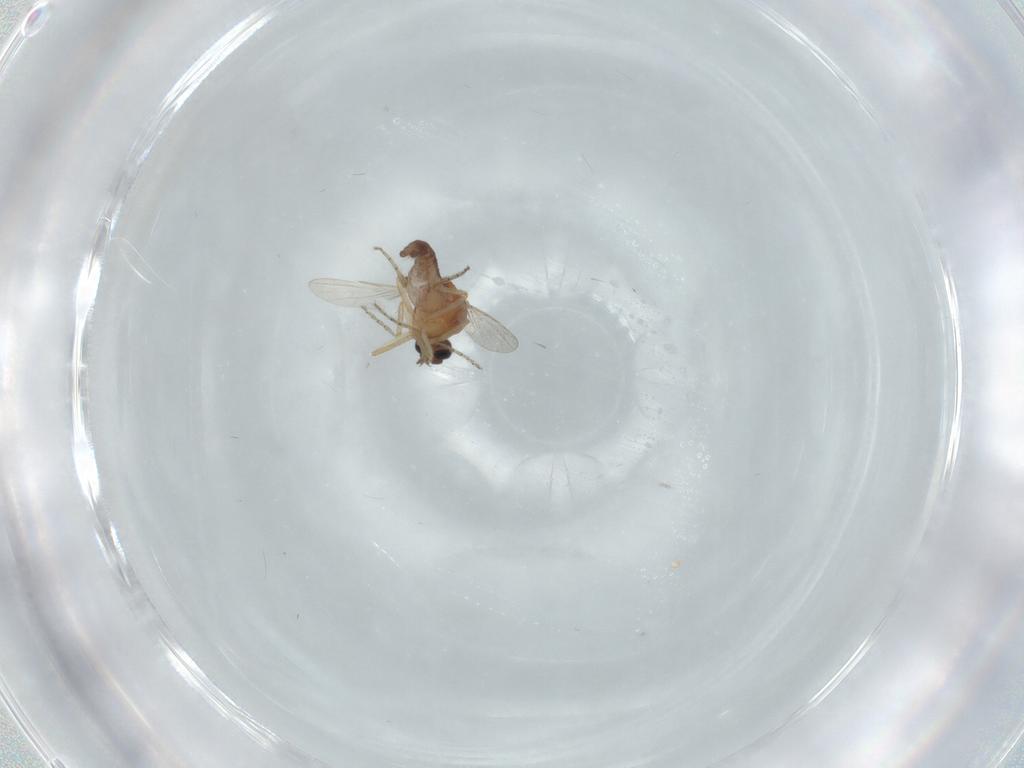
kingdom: Animalia
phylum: Arthropoda
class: Insecta
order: Diptera
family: Ceratopogonidae
